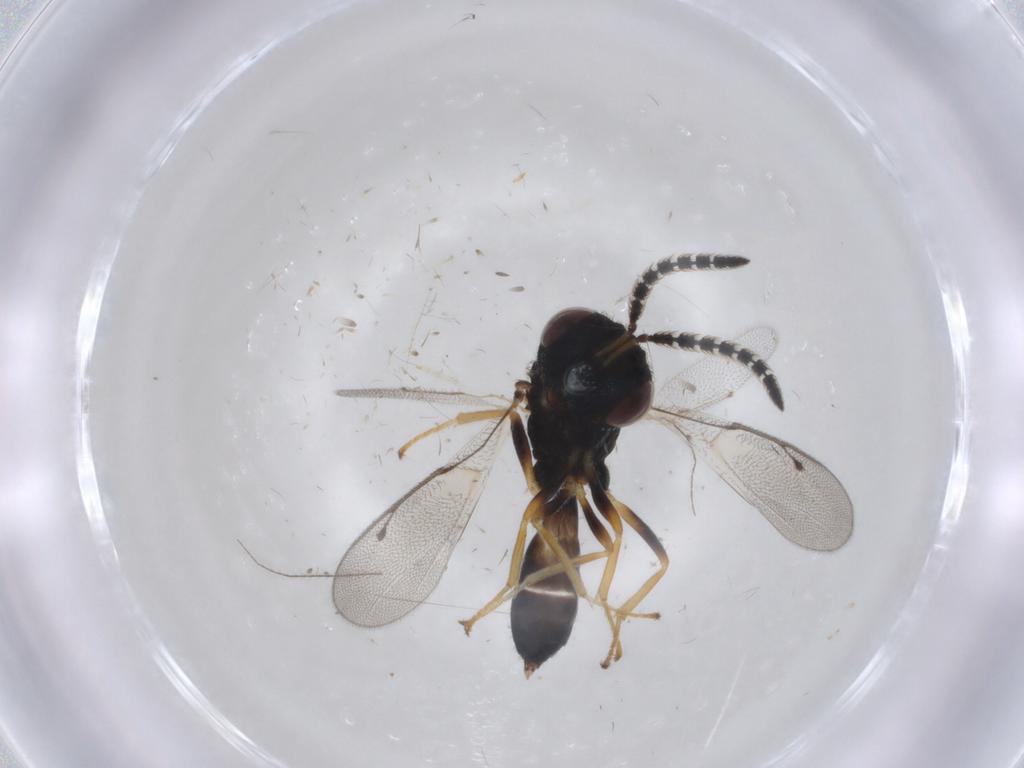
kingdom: Animalia
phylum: Arthropoda
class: Insecta
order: Hymenoptera
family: Pteromalidae
